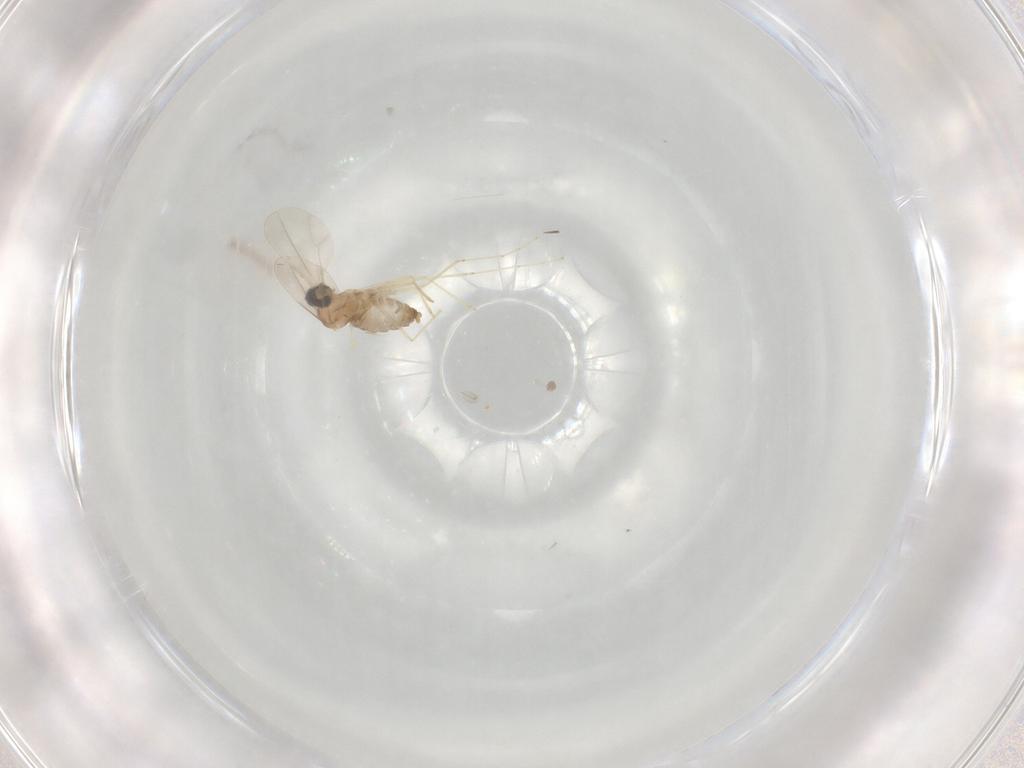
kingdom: Animalia
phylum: Arthropoda
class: Insecta
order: Diptera
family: Cecidomyiidae
